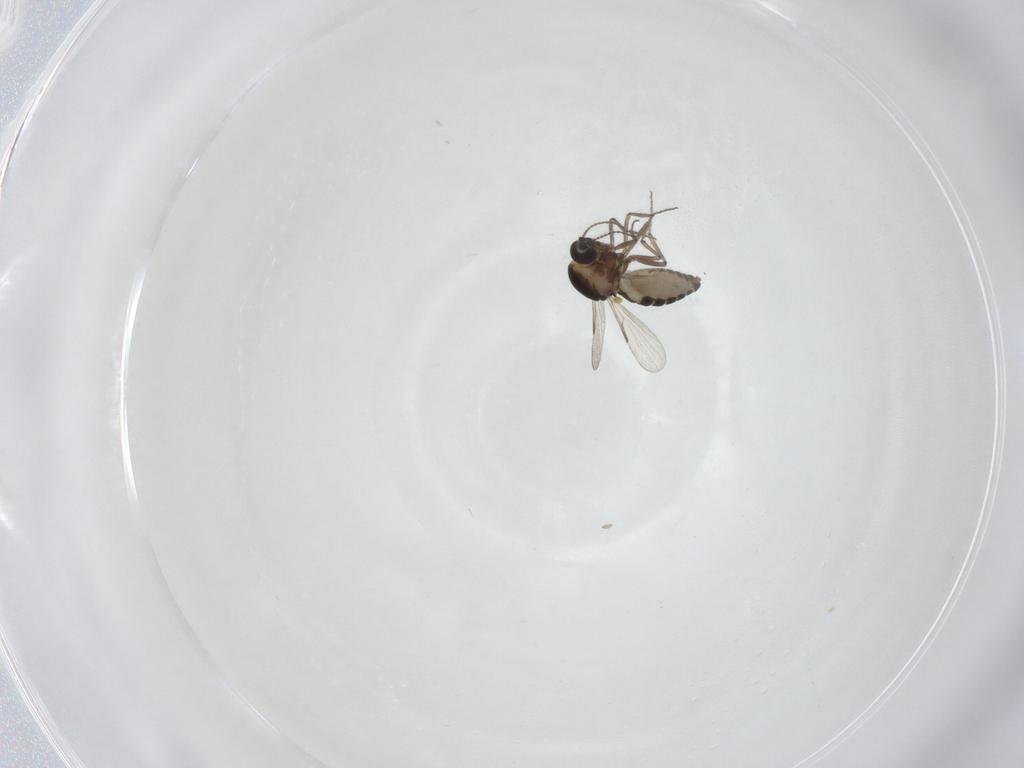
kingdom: Animalia
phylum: Arthropoda
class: Insecta
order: Diptera
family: Ceratopogonidae
